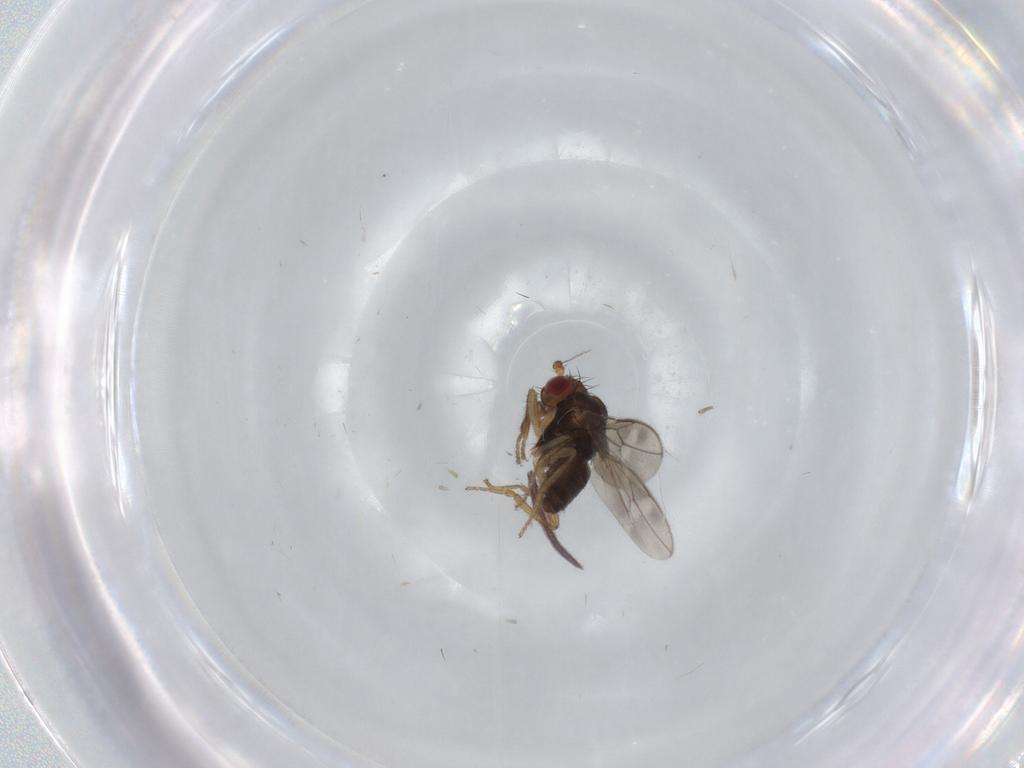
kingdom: Animalia
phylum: Arthropoda
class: Insecta
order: Diptera
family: Sphaeroceridae
